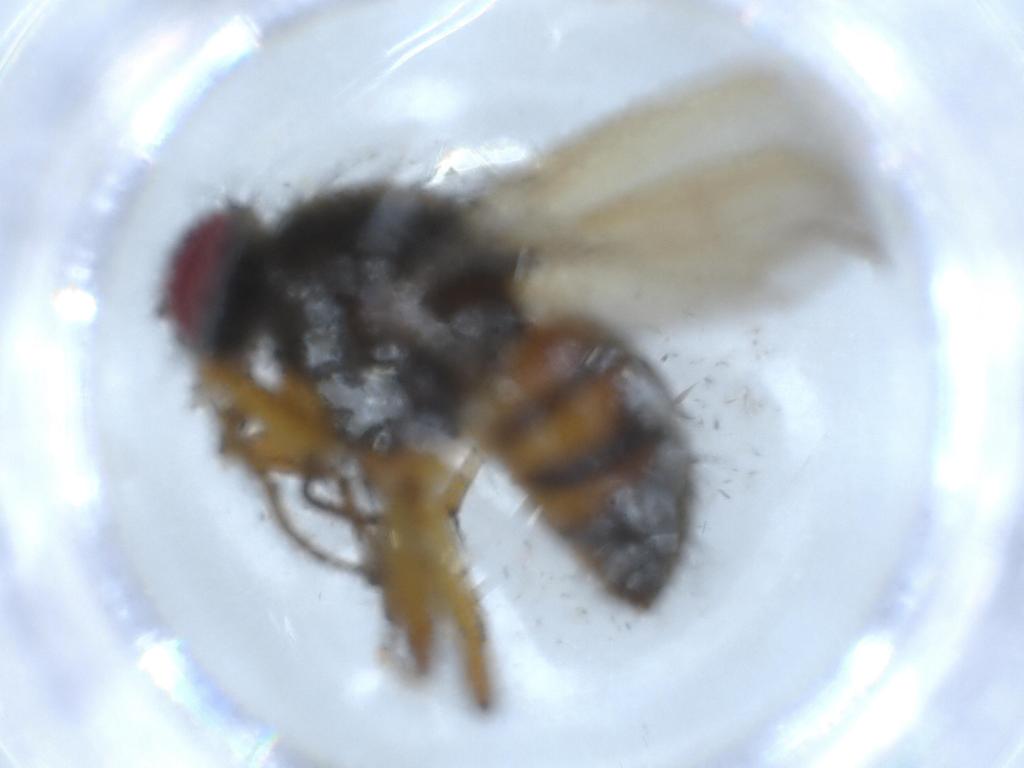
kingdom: Animalia
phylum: Arthropoda
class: Insecta
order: Diptera
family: Muscidae
